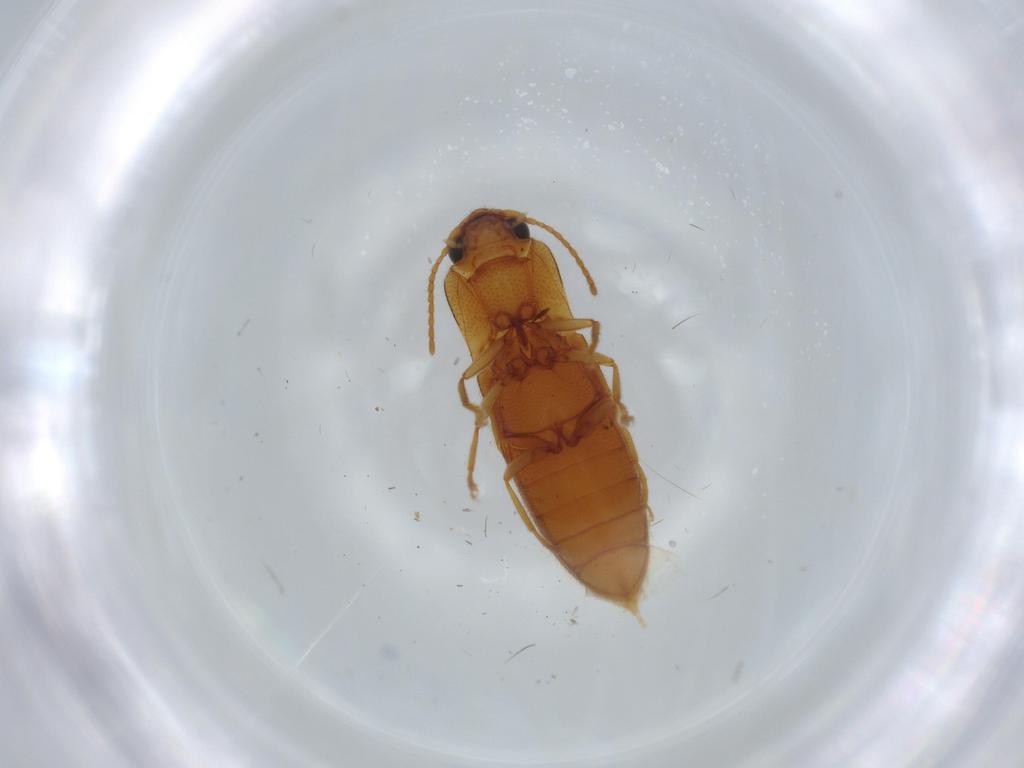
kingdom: Animalia
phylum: Arthropoda
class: Insecta
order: Coleoptera
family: Elateridae
